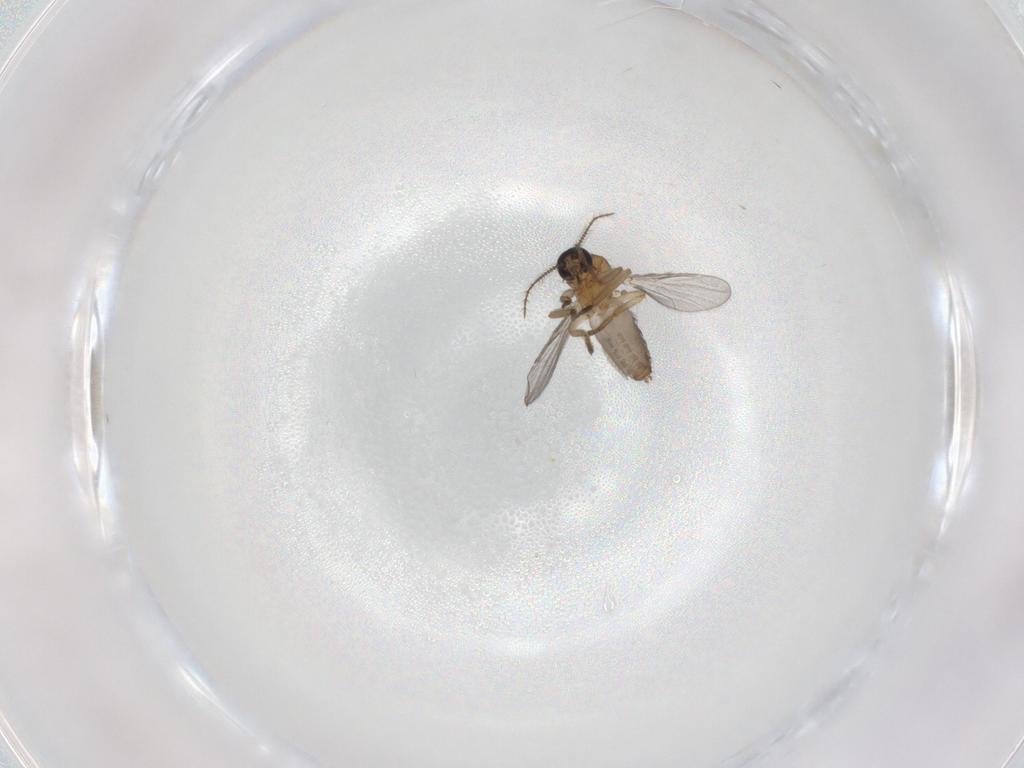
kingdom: Animalia
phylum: Arthropoda
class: Insecta
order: Diptera
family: Ceratopogonidae
